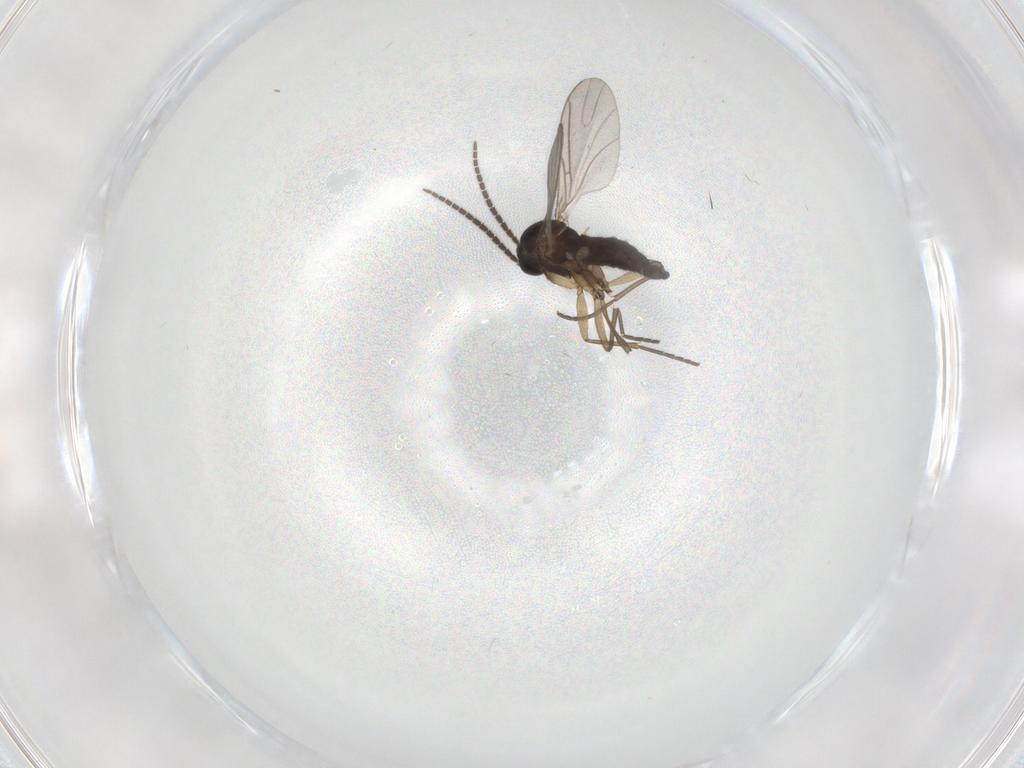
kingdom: Animalia
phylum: Arthropoda
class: Insecta
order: Diptera
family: Sciaridae
